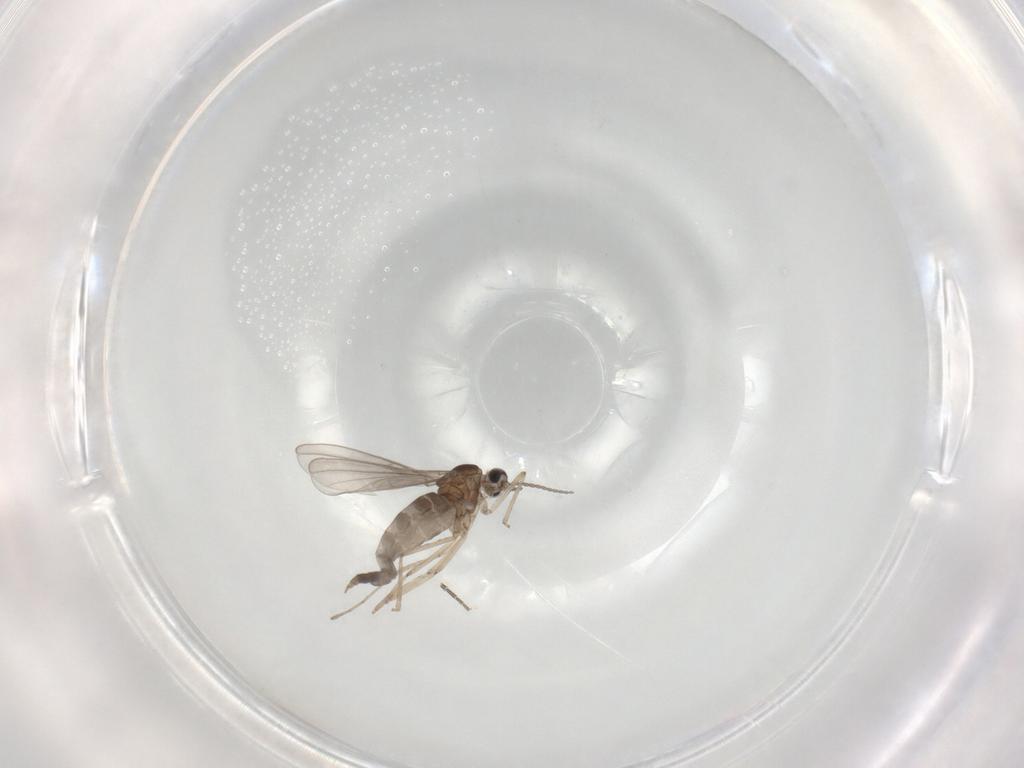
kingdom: Animalia
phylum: Arthropoda
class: Insecta
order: Diptera
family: Cecidomyiidae
